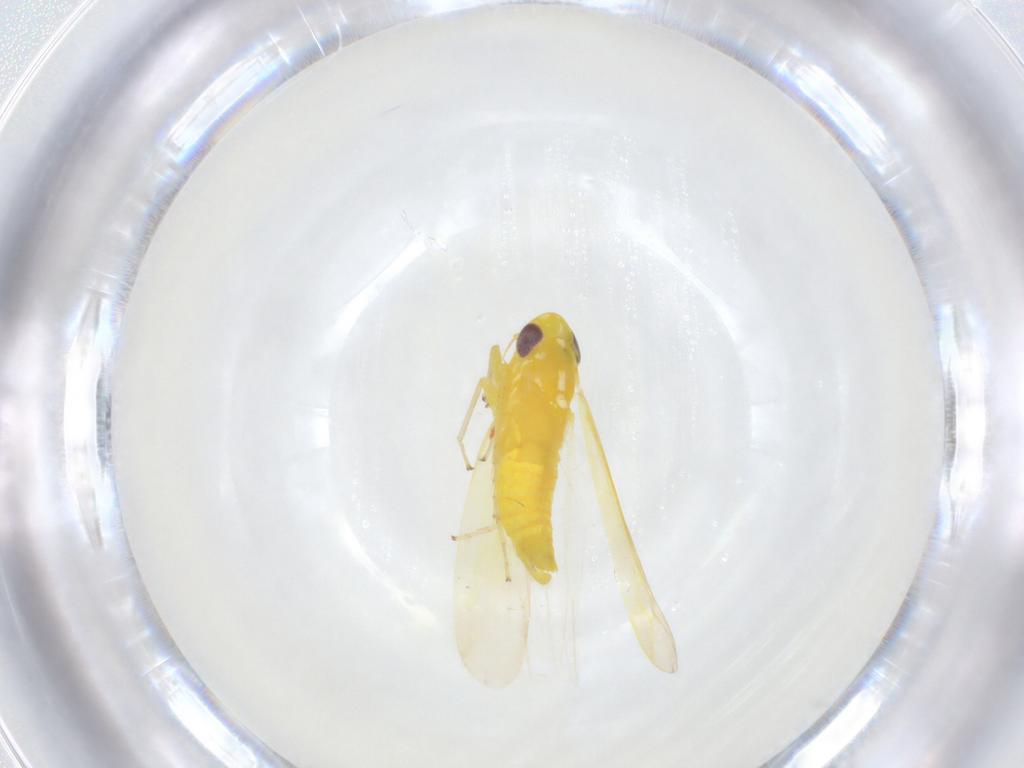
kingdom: Animalia
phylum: Arthropoda
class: Insecta
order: Hemiptera
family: Cicadellidae
